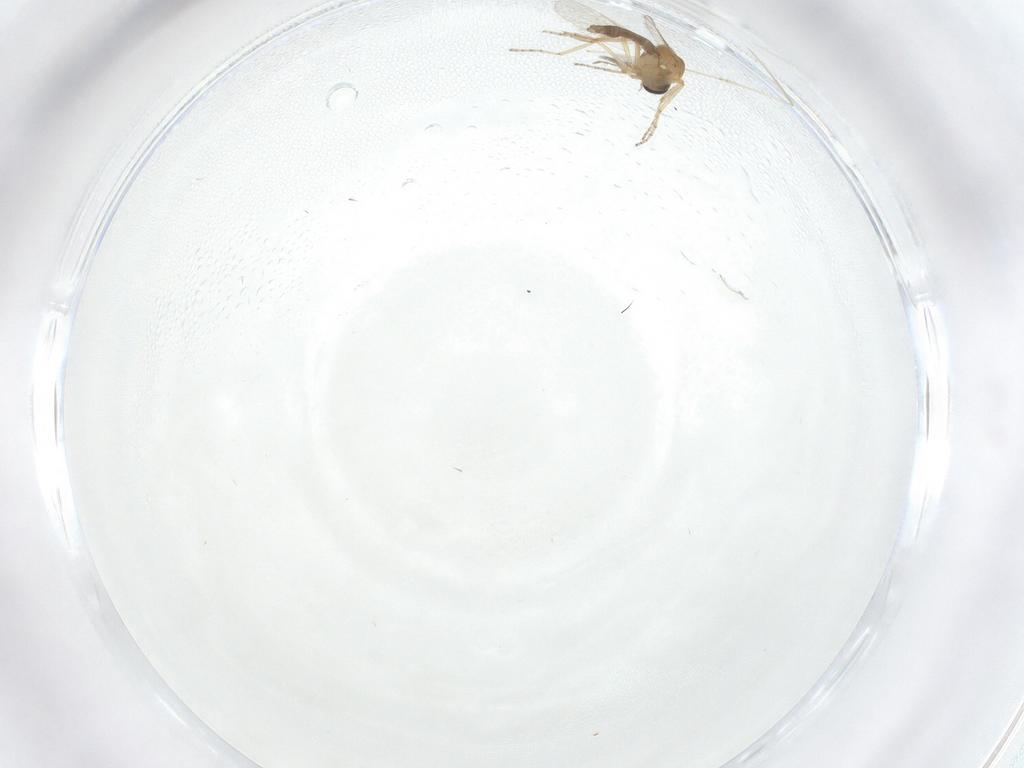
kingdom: Animalia
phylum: Arthropoda
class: Insecta
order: Diptera
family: Ceratopogonidae
